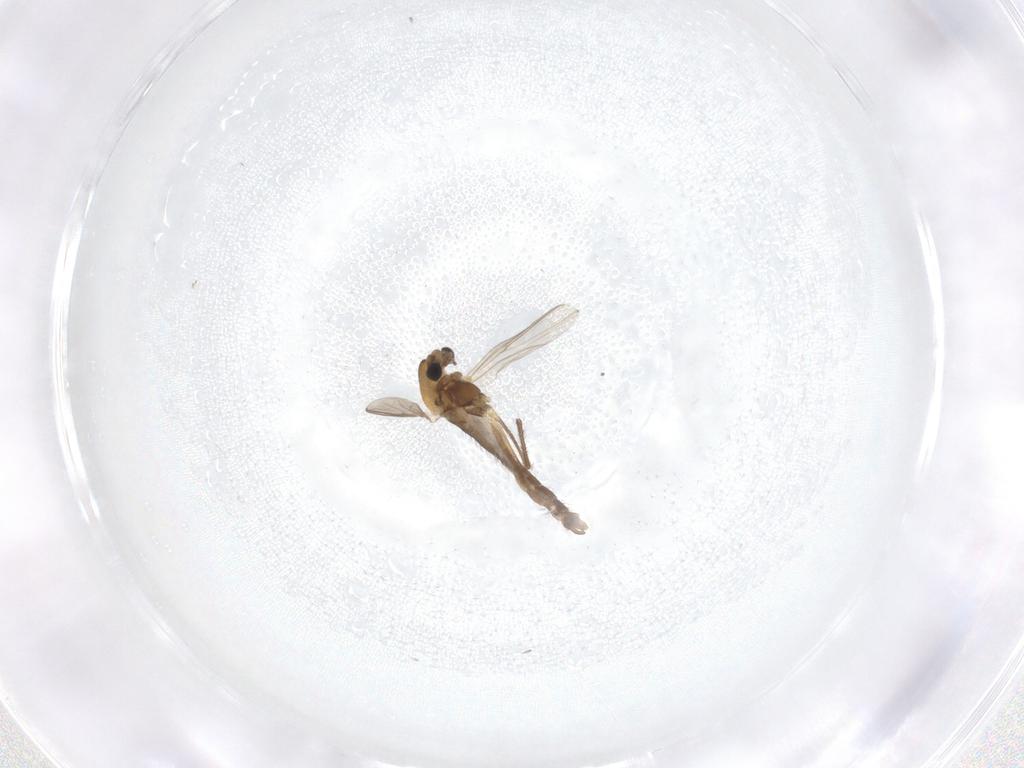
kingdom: Animalia
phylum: Arthropoda
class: Insecta
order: Diptera
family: Chironomidae
